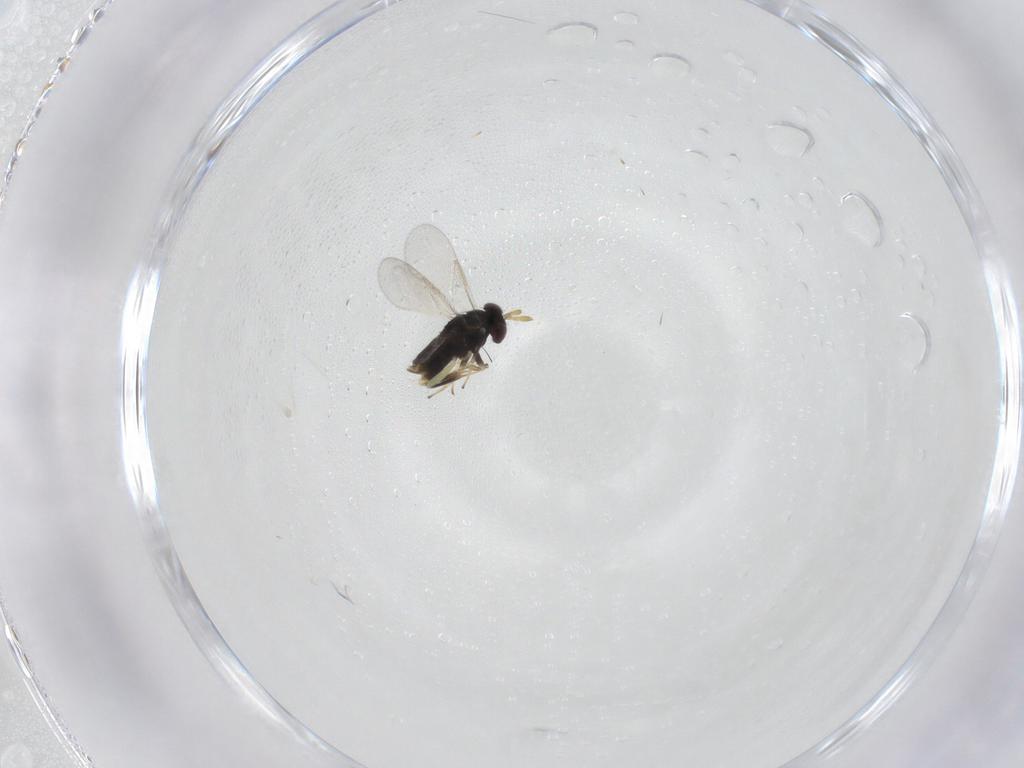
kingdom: Animalia
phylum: Arthropoda
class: Insecta
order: Hymenoptera
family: Aphelinidae
